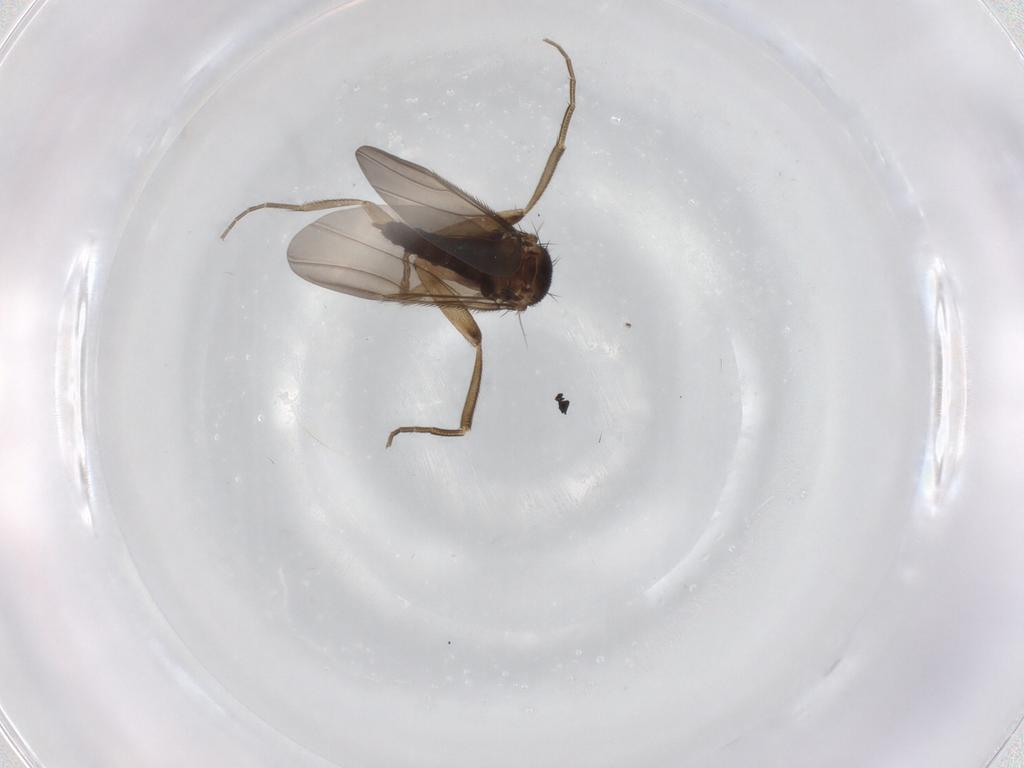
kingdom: Animalia
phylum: Arthropoda
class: Insecta
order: Diptera
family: Phoridae
